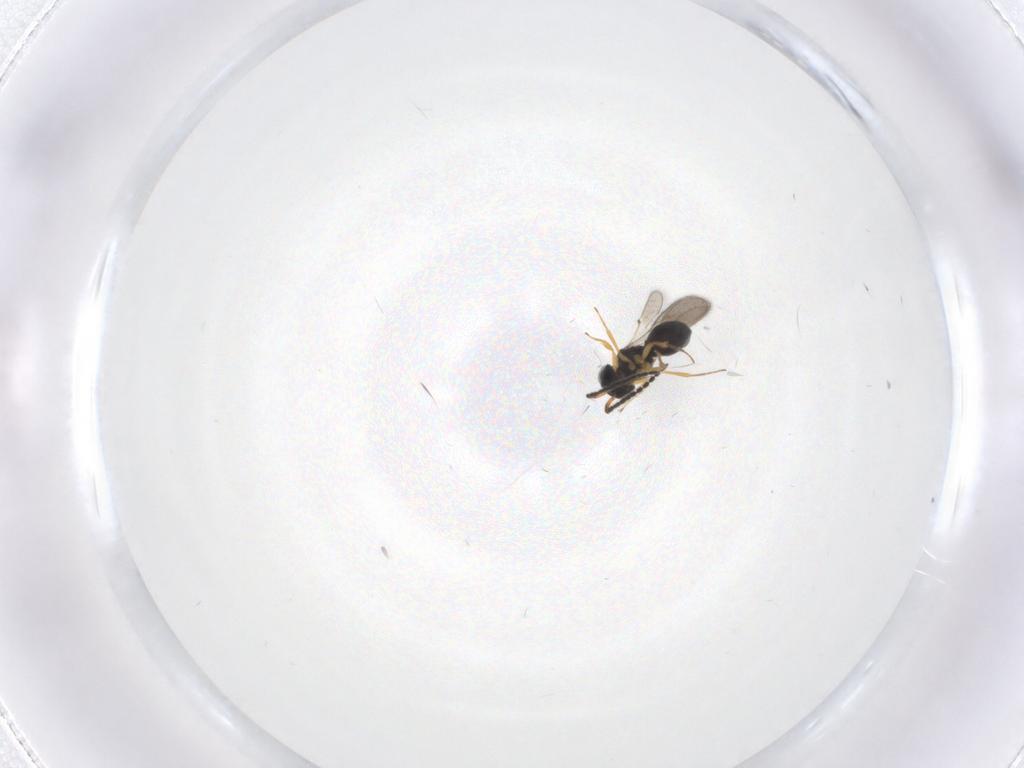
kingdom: Animalia
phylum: Arthropoda
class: Insecta
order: Hymenoptera
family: Scelionidae
